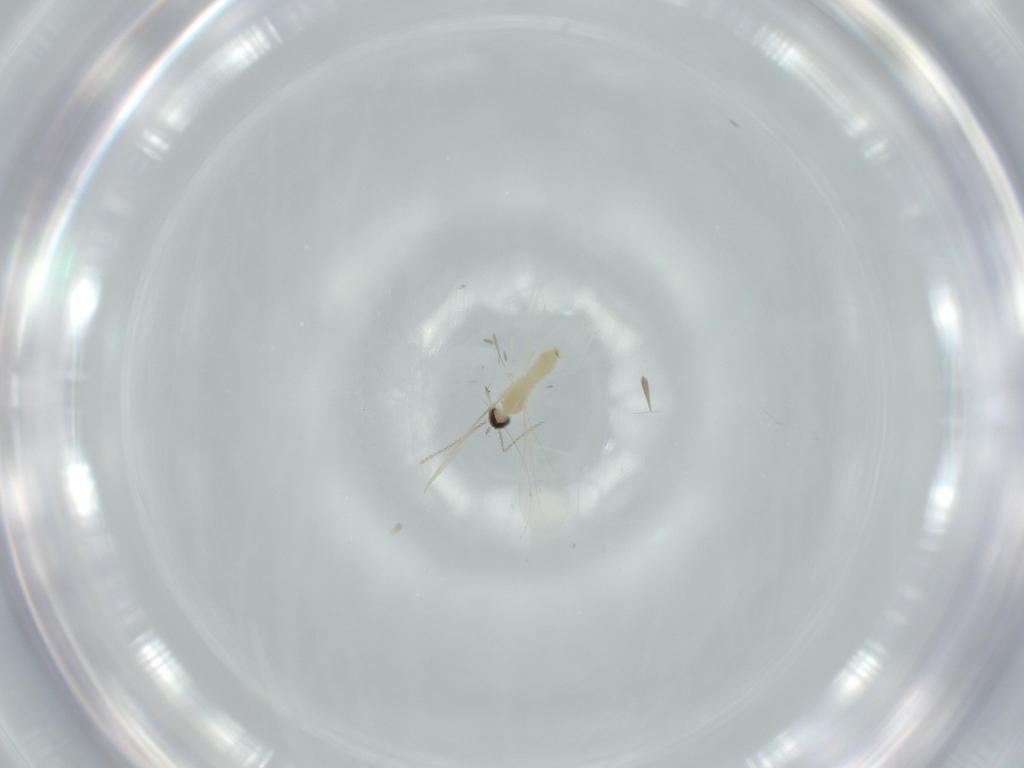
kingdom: Animalia
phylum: Arthropoda
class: Insecta
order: Diptera
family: Cecidomyiidae
